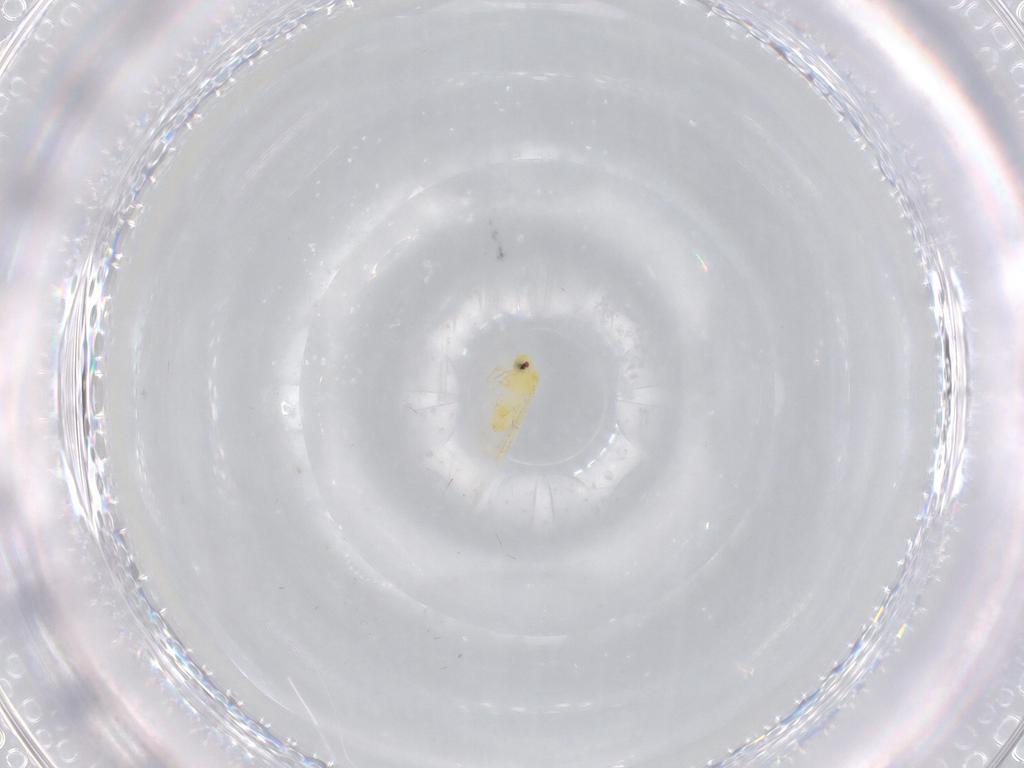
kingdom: Animalia
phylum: Arthropoda
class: Insecta
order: Hemiptera
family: Aleyrodidae
